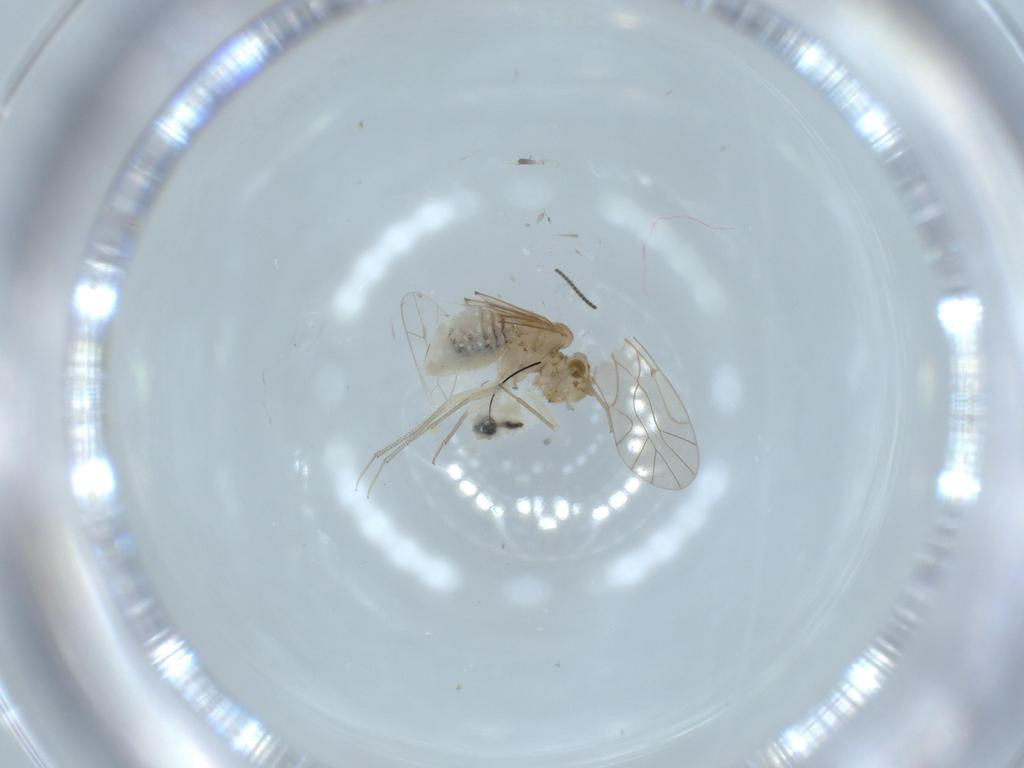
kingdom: Animalia
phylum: Arthropoda
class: Insecta
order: Psocodea
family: Lachesillidae
